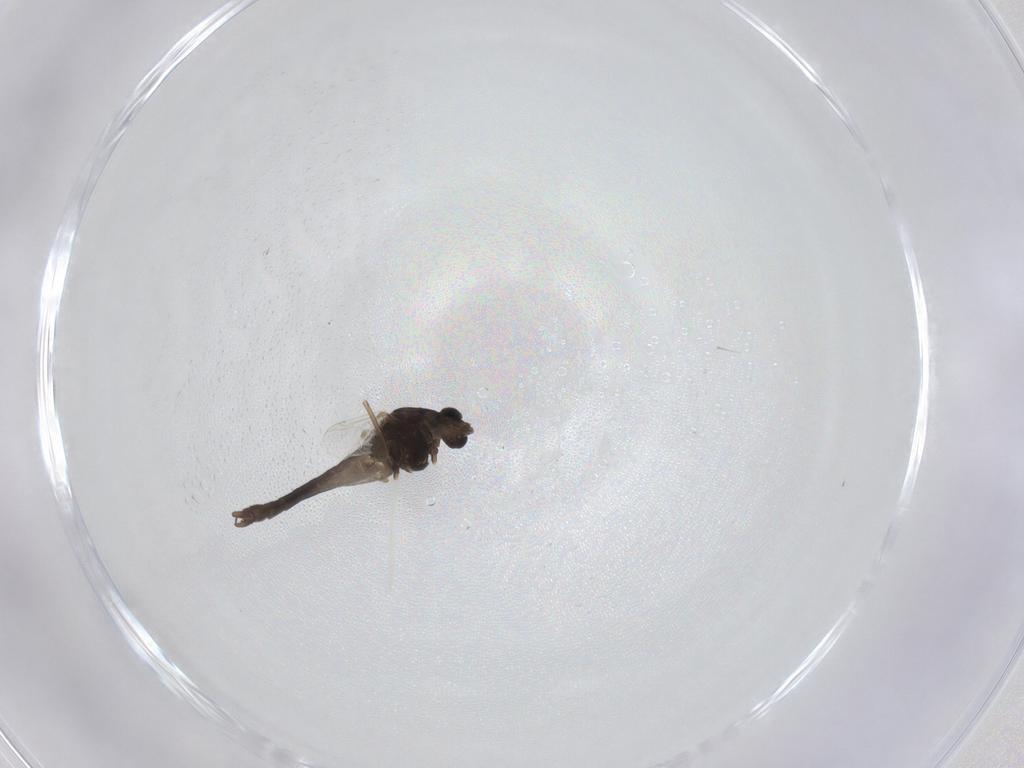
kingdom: Animalia
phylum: Arthropoda
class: Insecta
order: Diptera
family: Chironomidae
